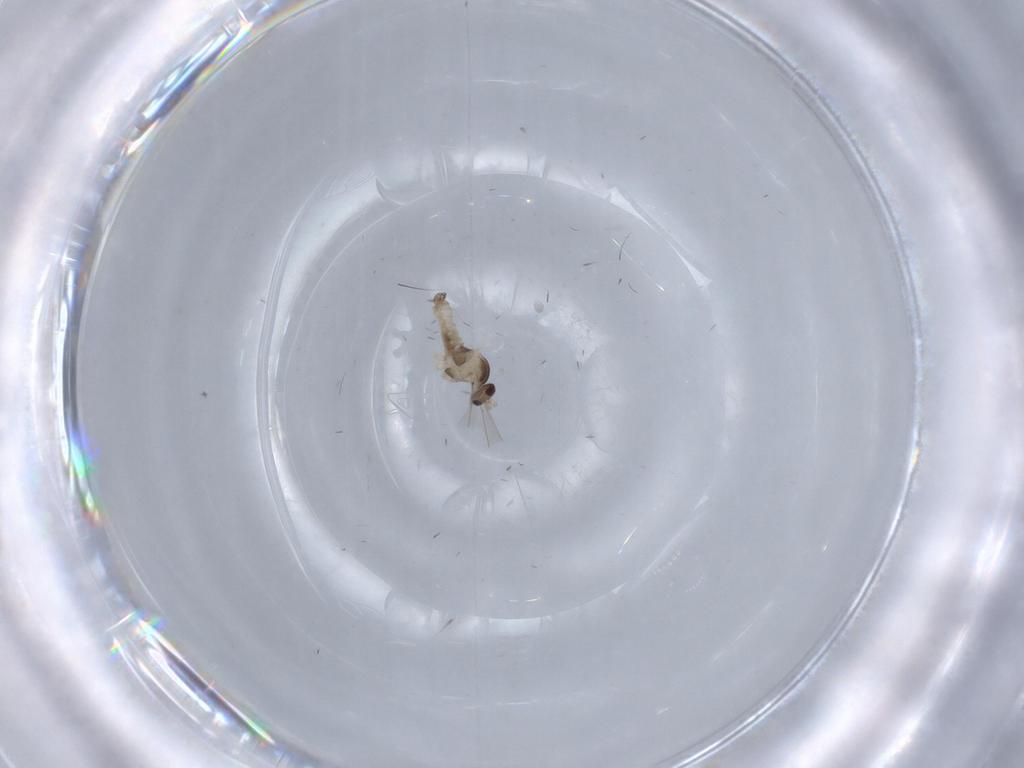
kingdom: Animalia
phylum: Arthropoda
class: Insecta
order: Diptera
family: Cecidomyiidae
